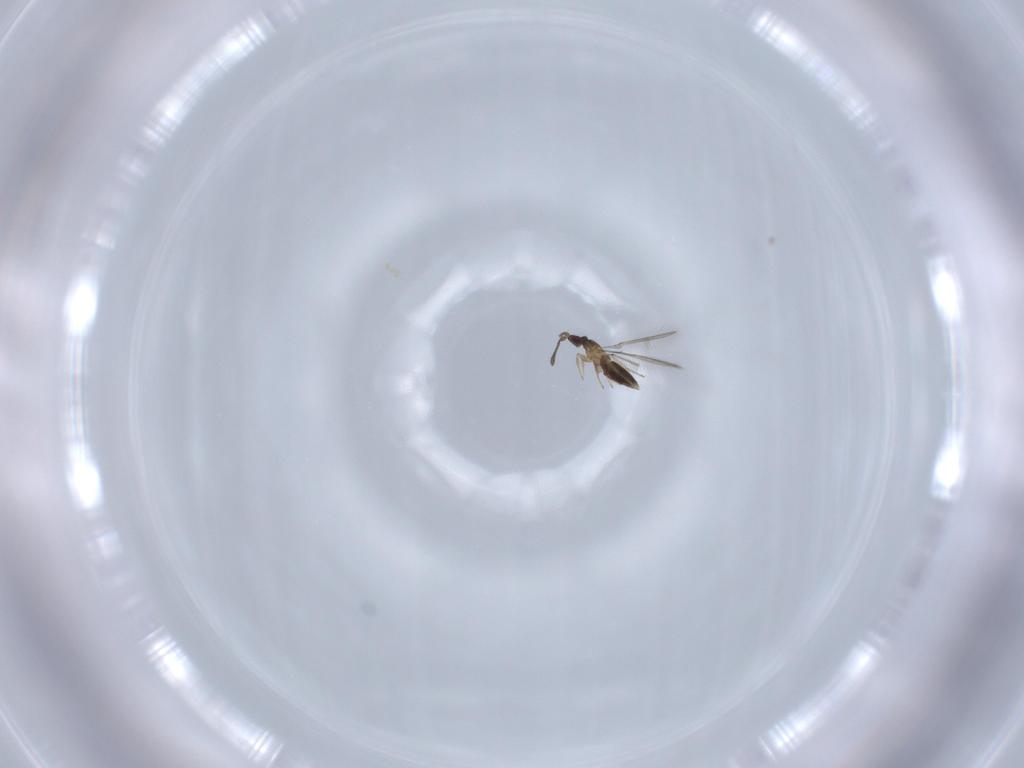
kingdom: Animalia
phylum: Arthropoda
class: Insecta
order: Hymenoptera
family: Mymaridae
